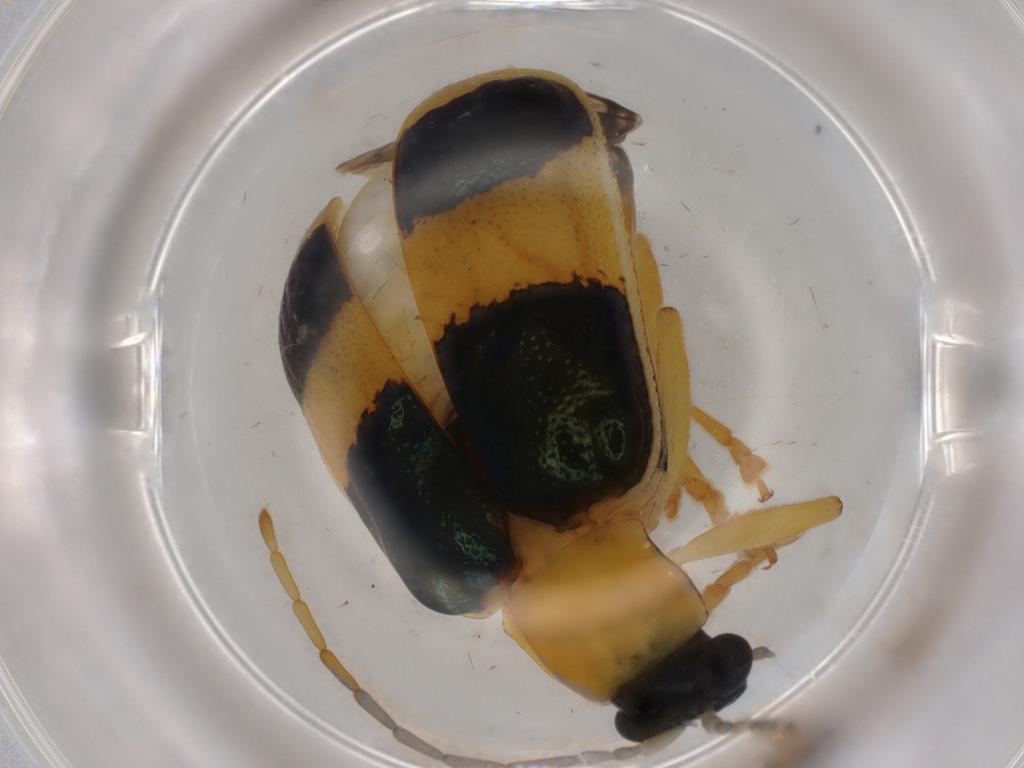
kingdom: Animalia
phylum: Arthropoda
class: Insecta
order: Coleoptera
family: Chrysomelidae
